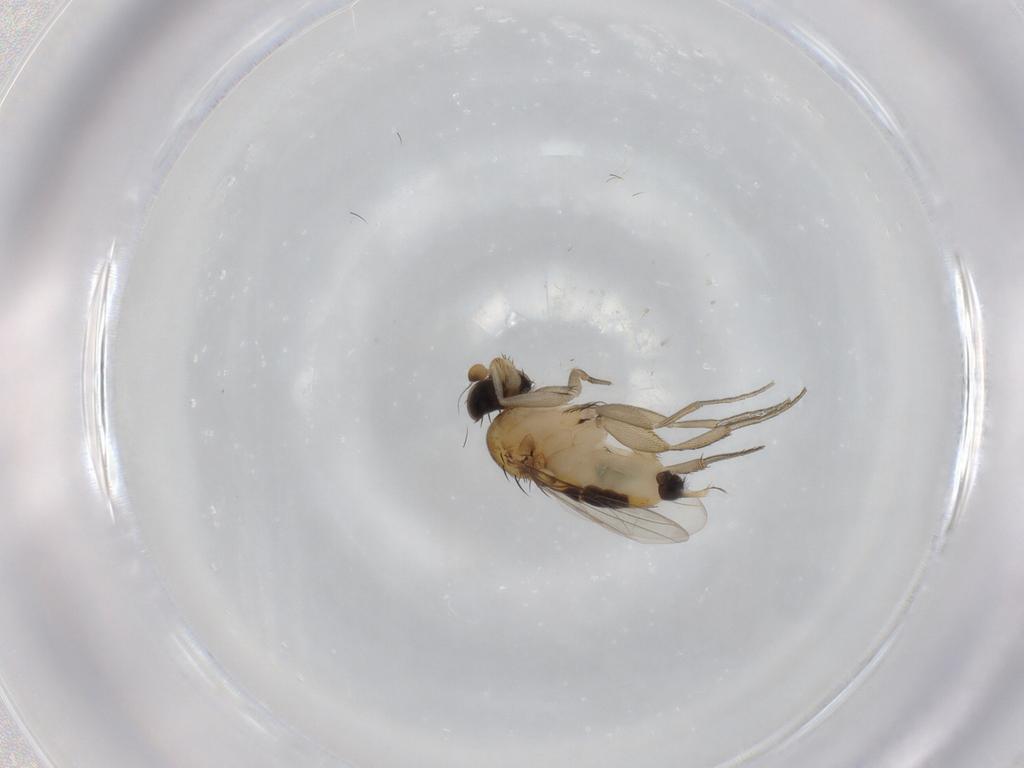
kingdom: Animalia
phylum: Arthropoda
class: Insecta
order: Diptera
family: Phoridae
